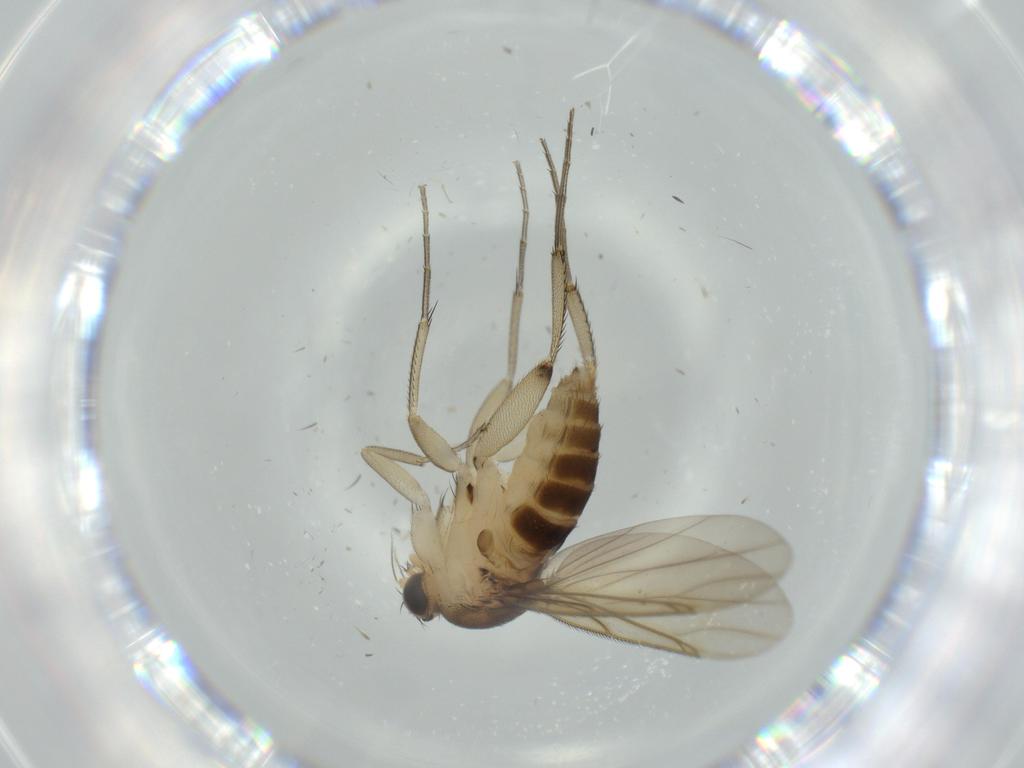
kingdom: Animalia
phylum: Arthropoda
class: Insecta
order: Diptera
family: Phoridae
